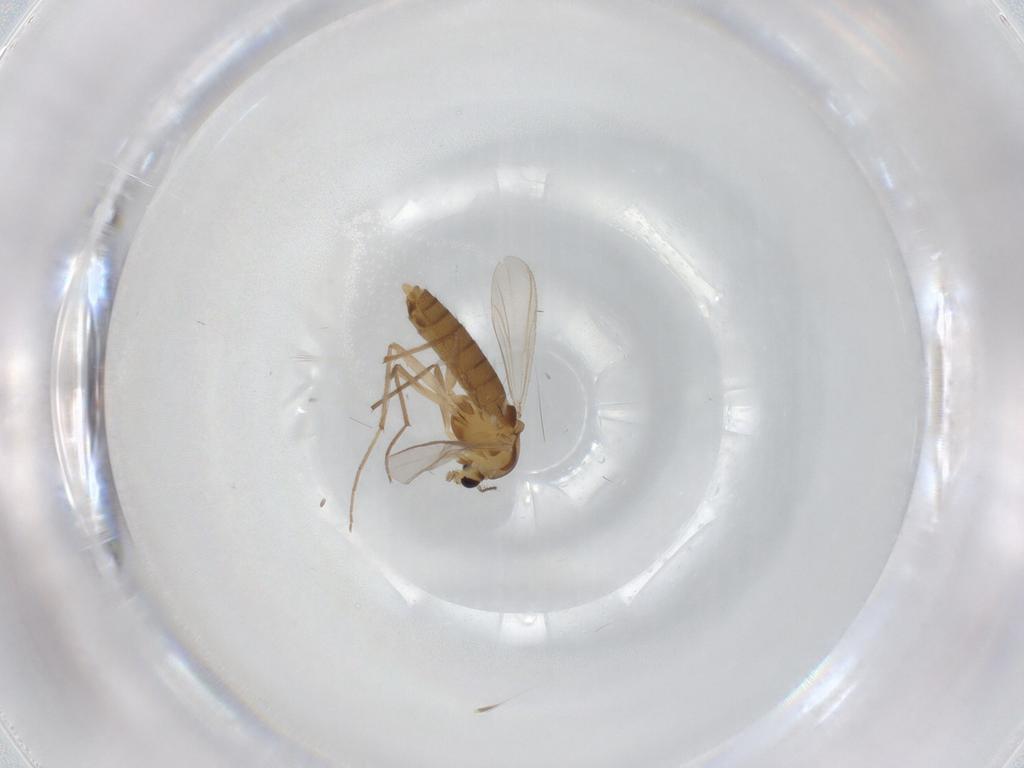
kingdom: Animalia
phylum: Arthropoda
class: Insecta
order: Diptera
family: Chironomidae
